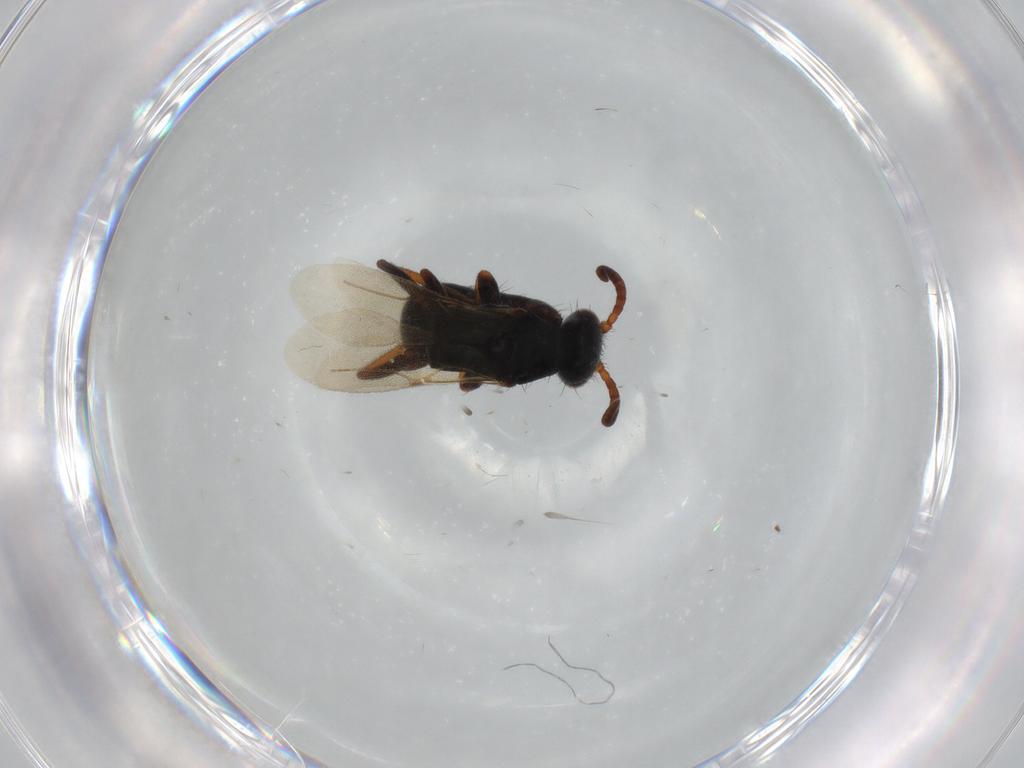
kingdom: Animalia
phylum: Arthropoda
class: Insecta
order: Hymenoptera
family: Bethylidae
